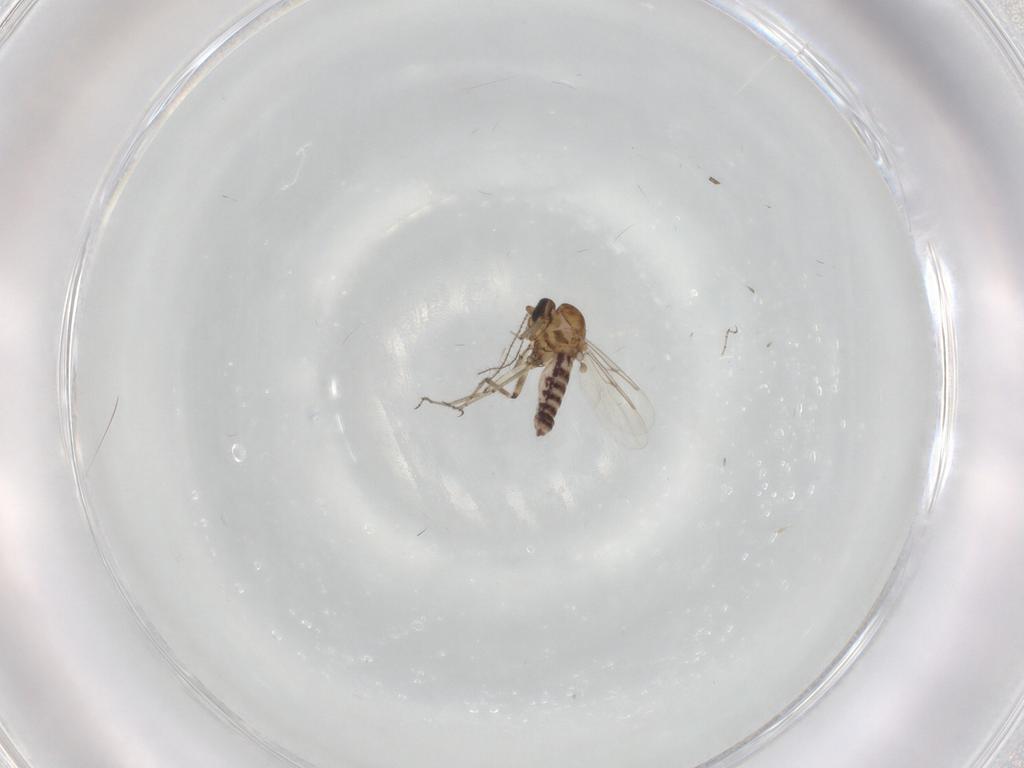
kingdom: Animalia
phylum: Arthropoda
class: Insecta
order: Diptera
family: Ceratopogonidae
